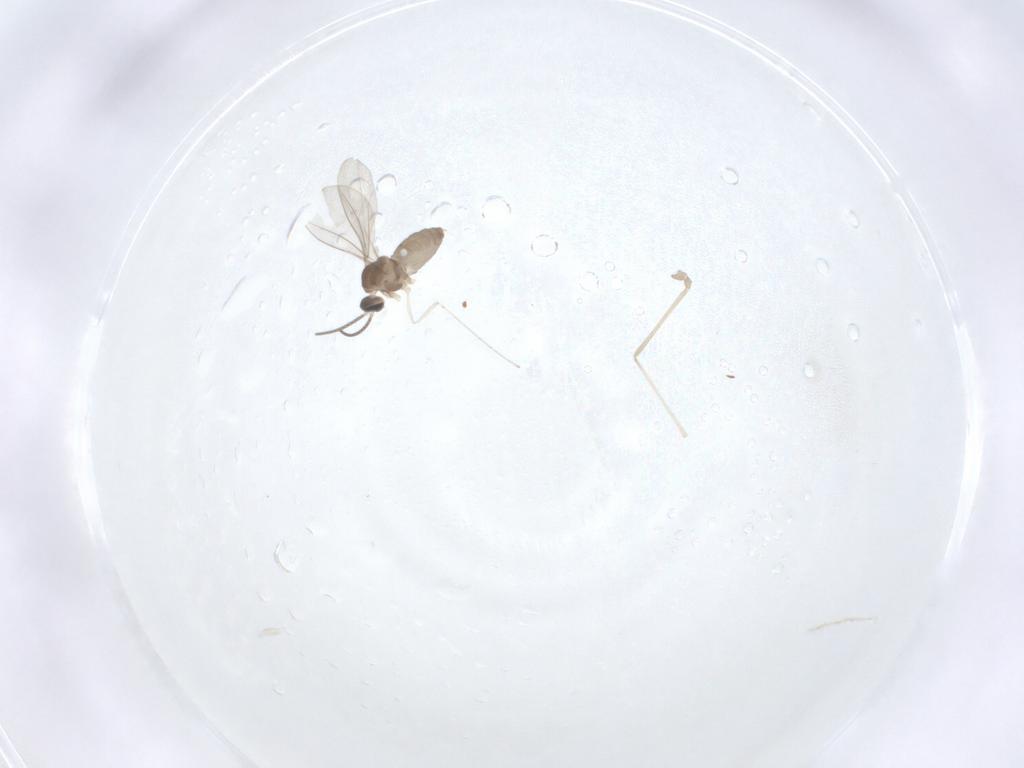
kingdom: Animalia
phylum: Arthropoda
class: Insecta
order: Diptera
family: Cecidomyiidae
